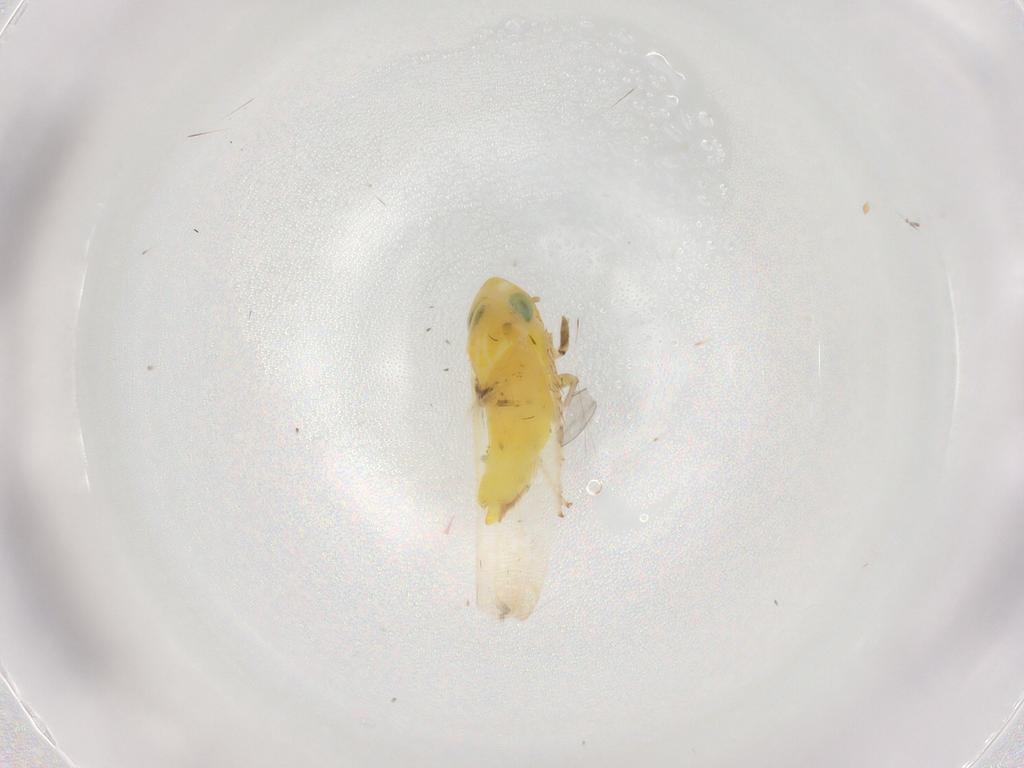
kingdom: Animalia
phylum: Arthropoda
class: Insecta
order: Hemiptera
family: Cicadellidae
